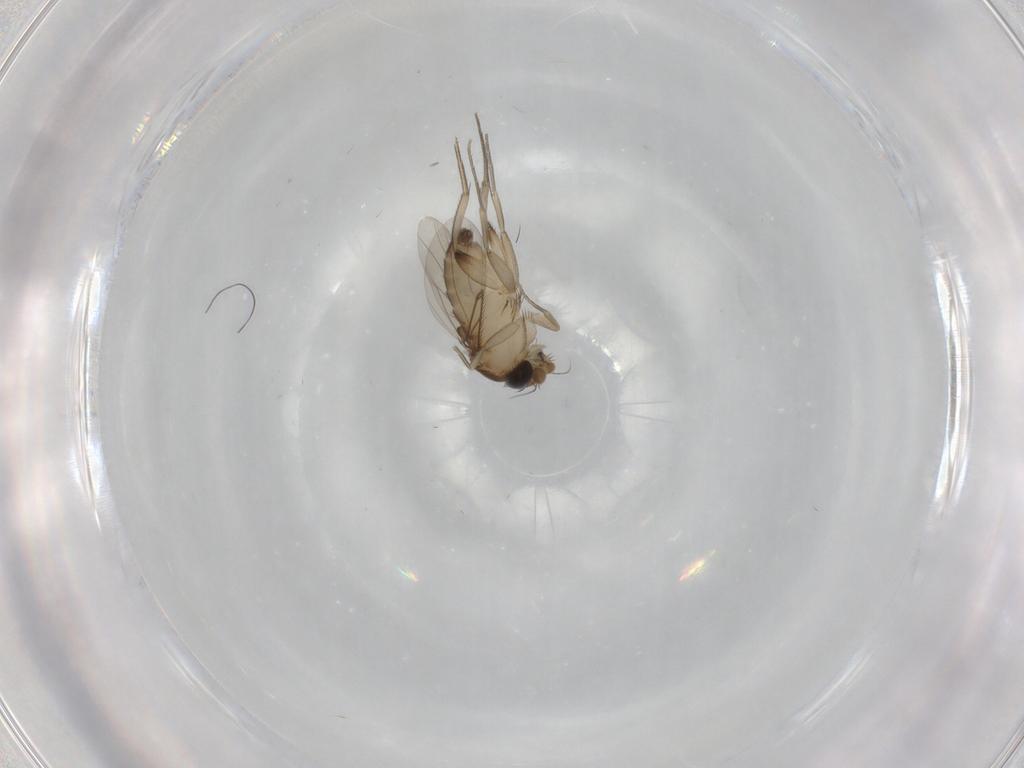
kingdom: Animalia
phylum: Arthropoda
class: Insecta
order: Diptera
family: Phoridae
